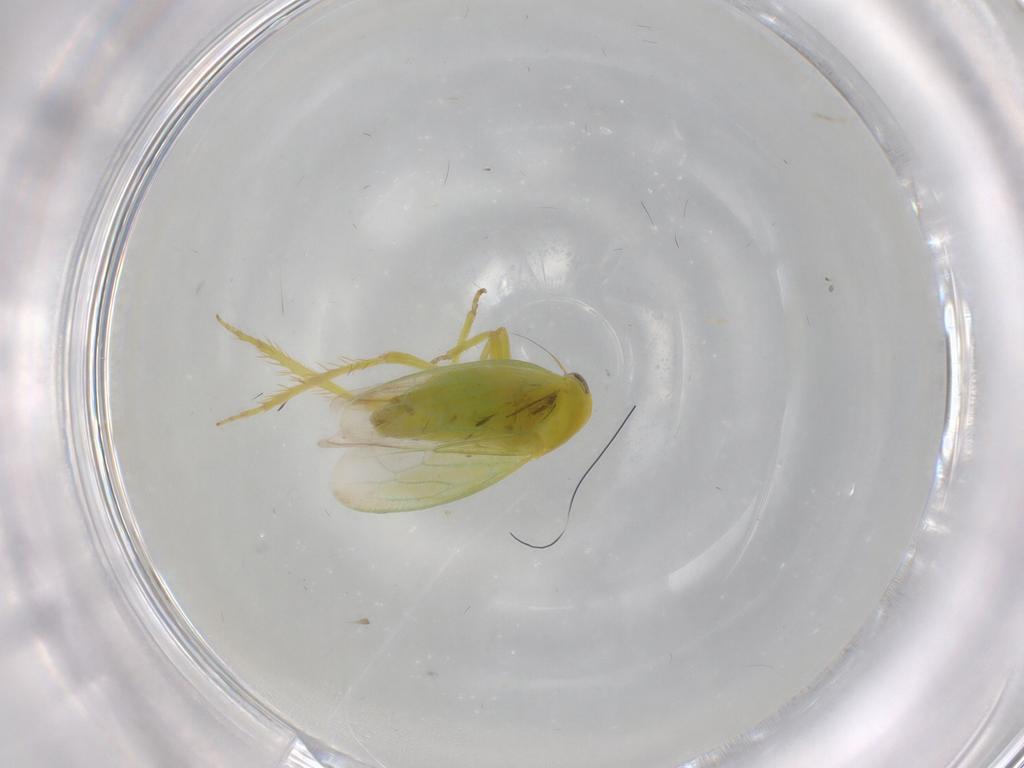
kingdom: Animalia
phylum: Arthropoda
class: Insecta
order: Hemiptera
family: Cicadellidae
